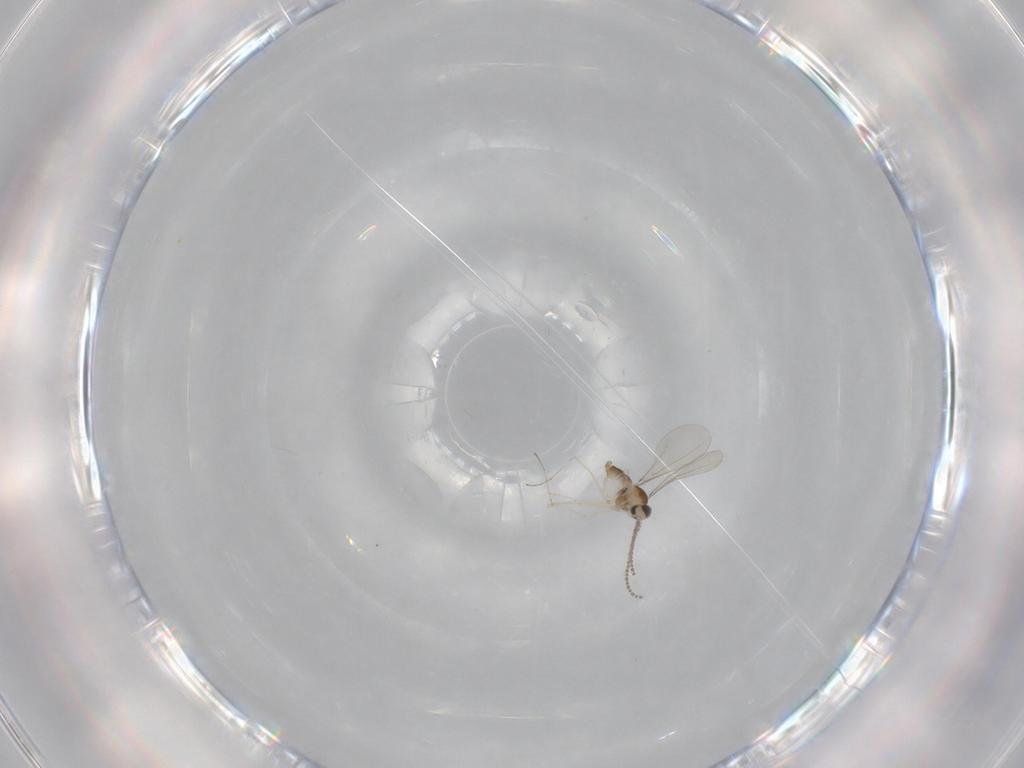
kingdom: Animalia
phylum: Arthropoda
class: Insecta
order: Diptera
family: Cecidomyiidae
